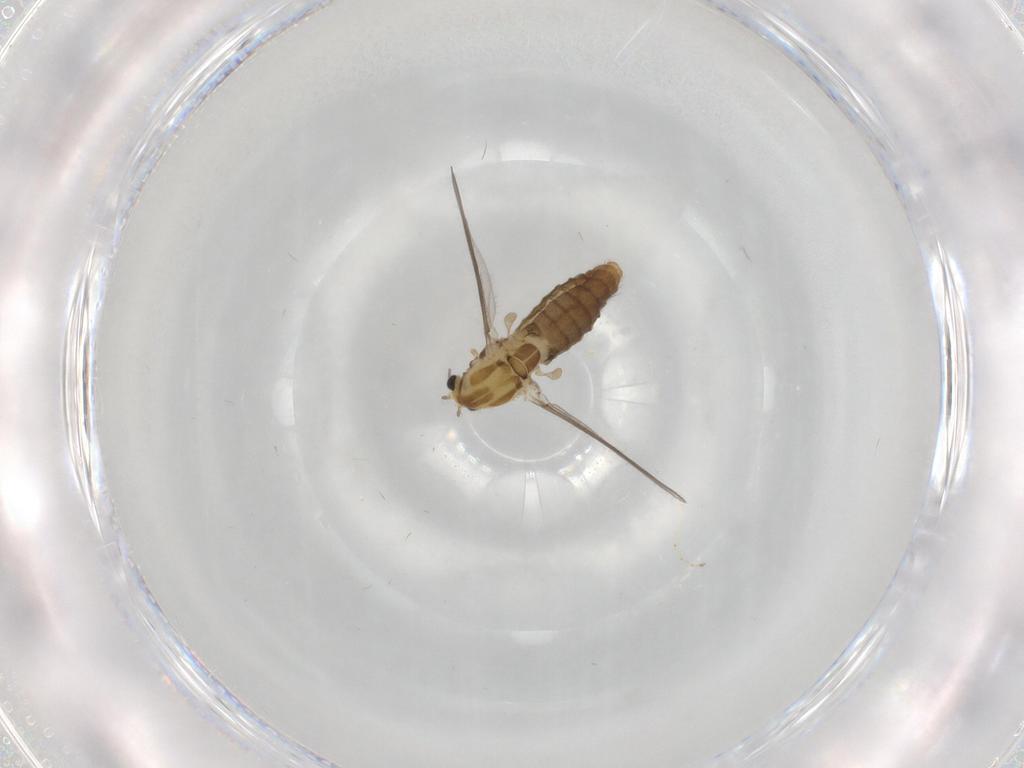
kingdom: Animalia
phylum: Arthropoda
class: Insecta
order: Diptera
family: Chironomidae
